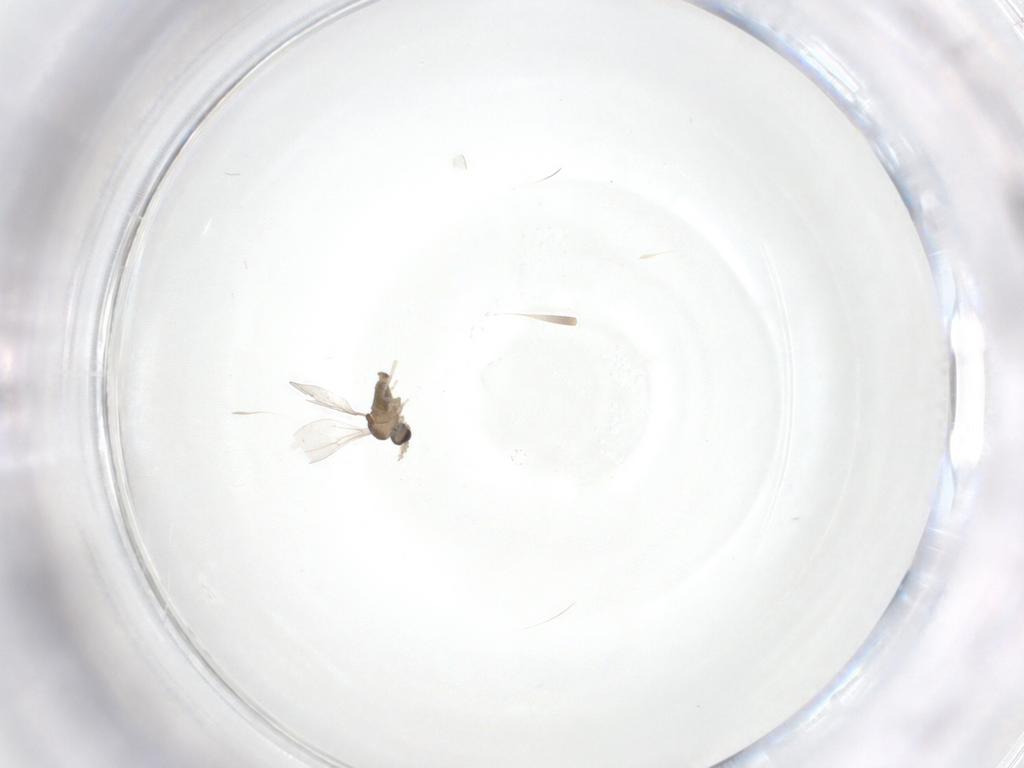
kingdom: Animalia
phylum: Arthropoda
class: Insecta
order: Diptera
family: Cecidomyiidae
